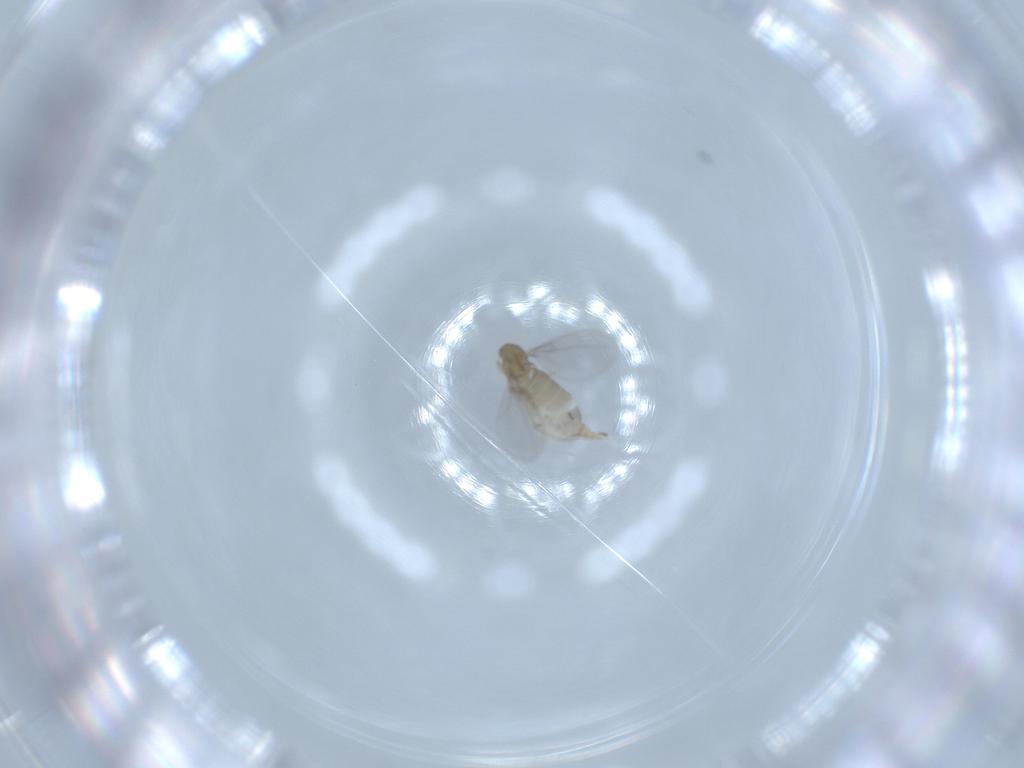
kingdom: Animalia
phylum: Arthropoda
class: Insecta
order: Diptera
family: Cecidomyiidae
